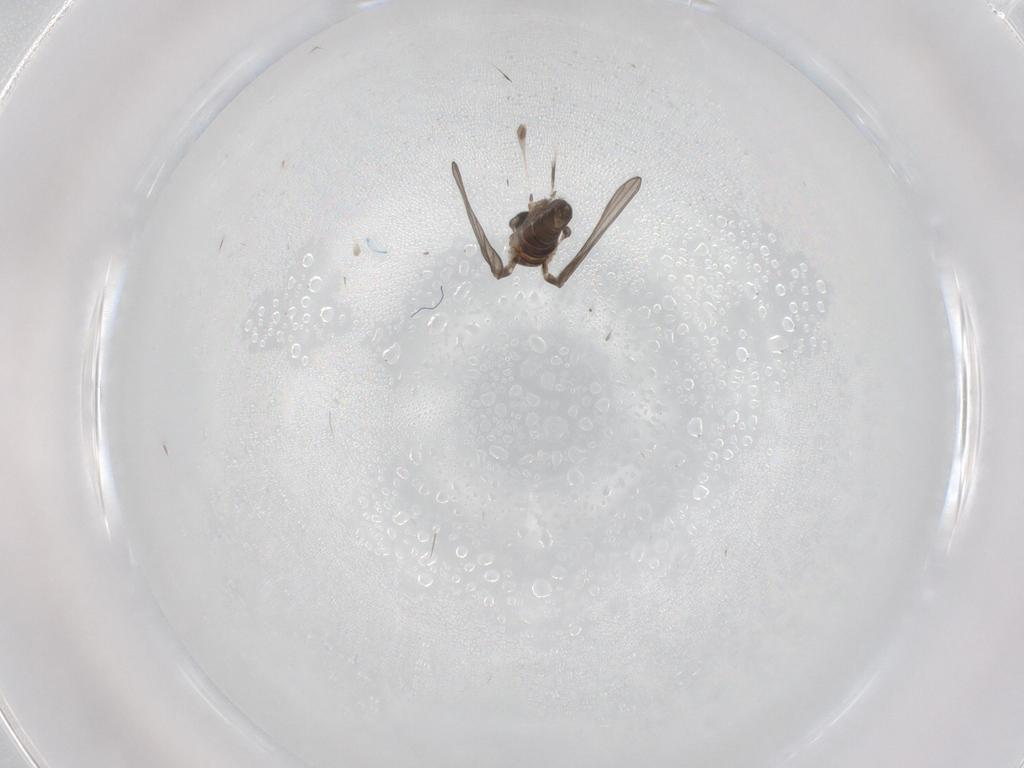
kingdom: Animalia
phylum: Arthropoda
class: Insecta
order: Diptera
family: Psychodidae
